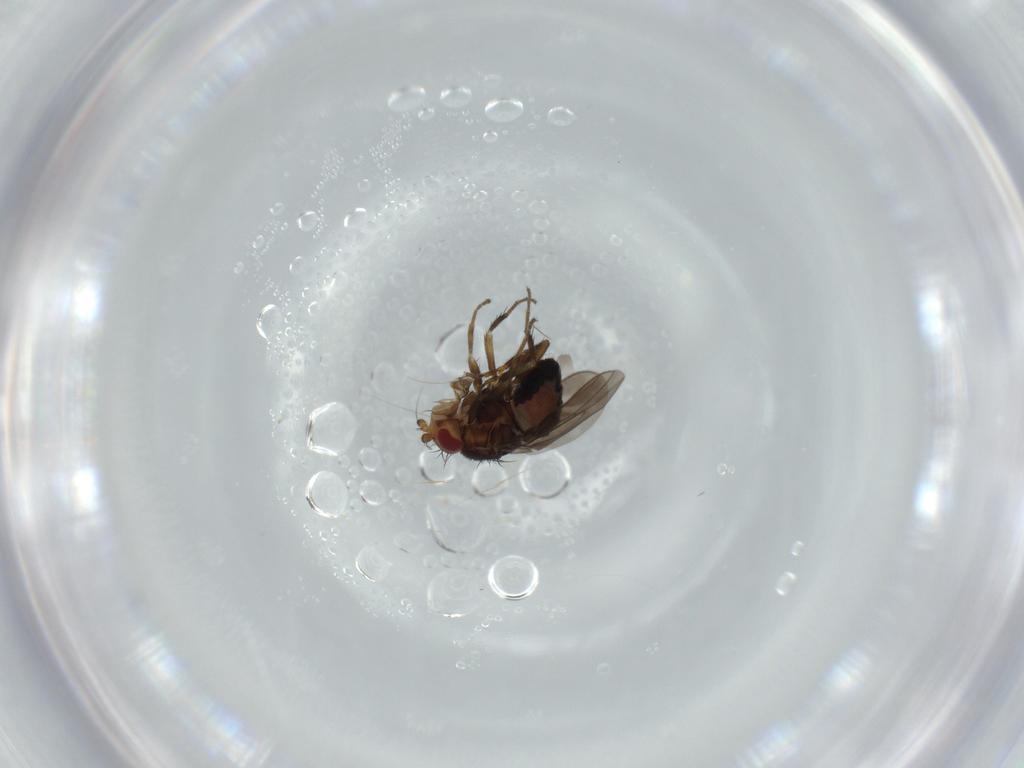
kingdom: Animalia
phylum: Arthropoda
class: Insecta
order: Diptera
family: Sphaeroceridae
